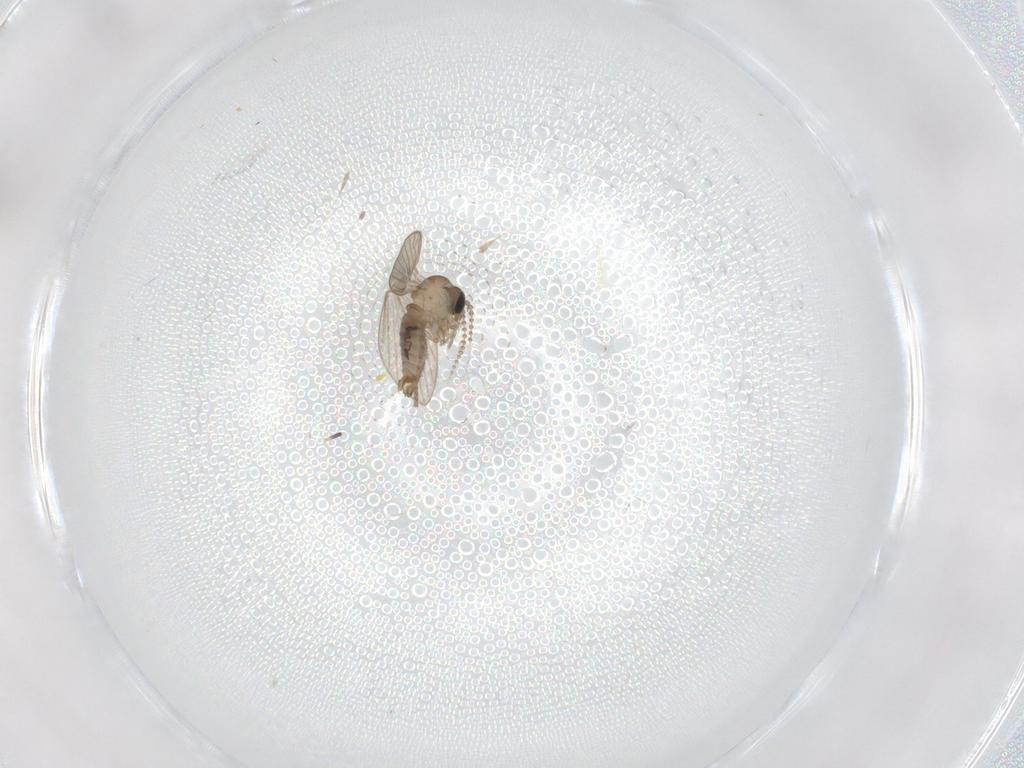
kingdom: Animalia
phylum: Arthropoda
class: Insecta
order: Diptera
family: Psychodidae
